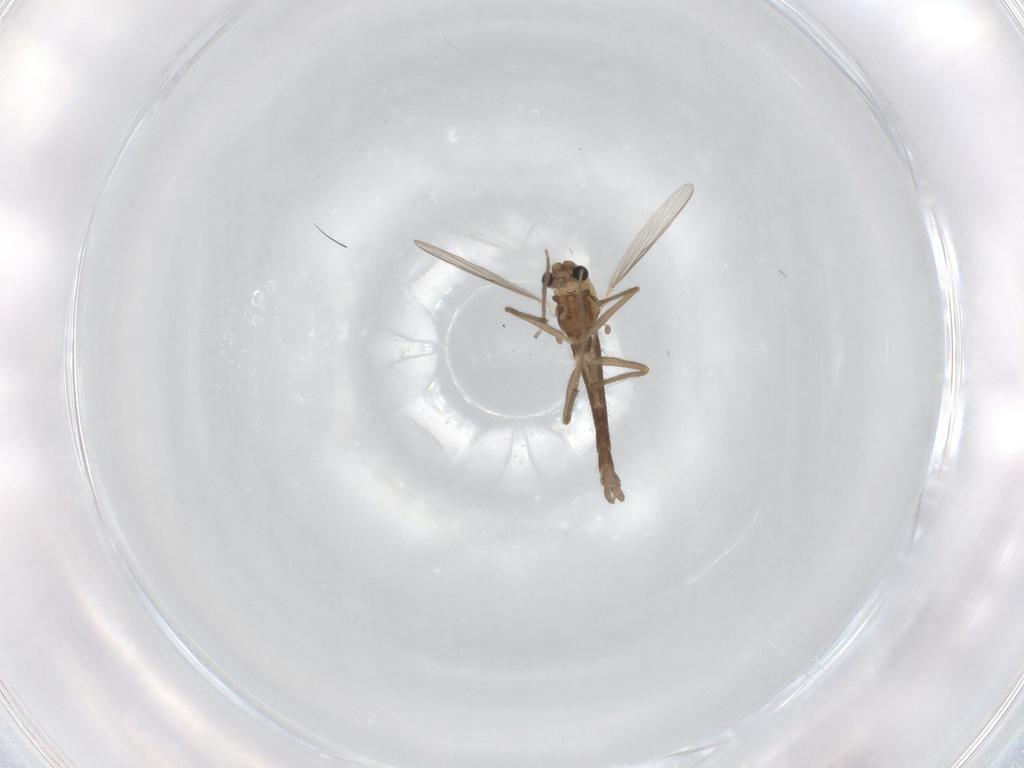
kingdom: Animalia
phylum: Arthropoda
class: Insecta
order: Diptera
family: Chironomidae
